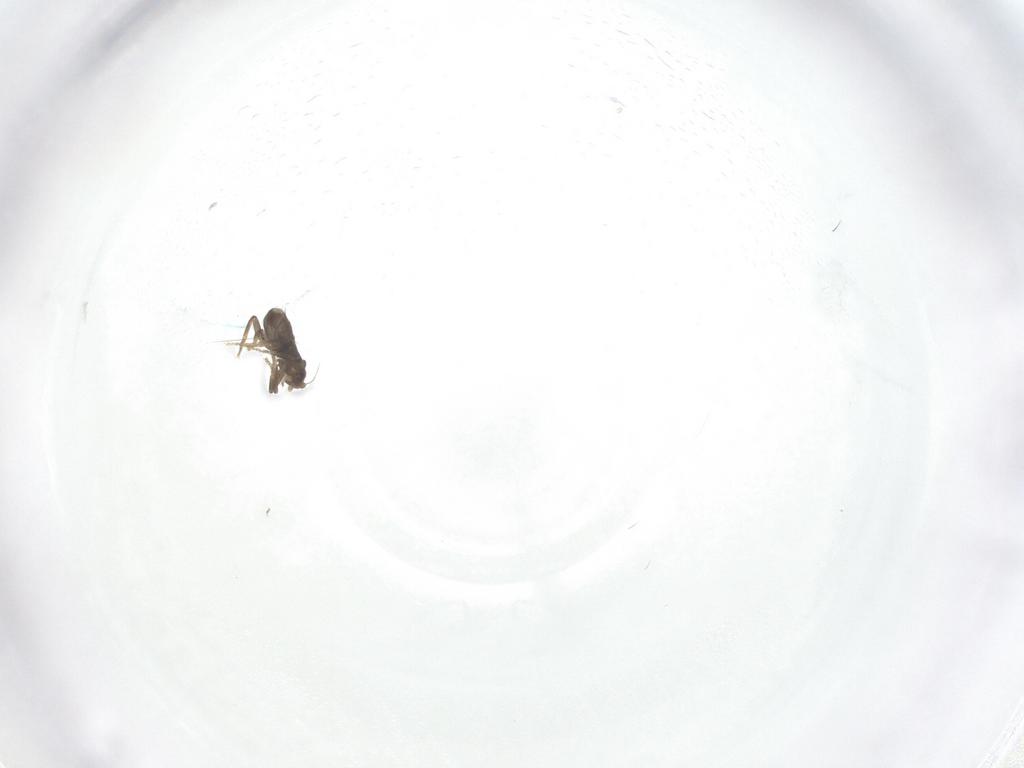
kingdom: Animalia
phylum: Arthropoda
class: Insecta
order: Diptera
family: Phoridae
